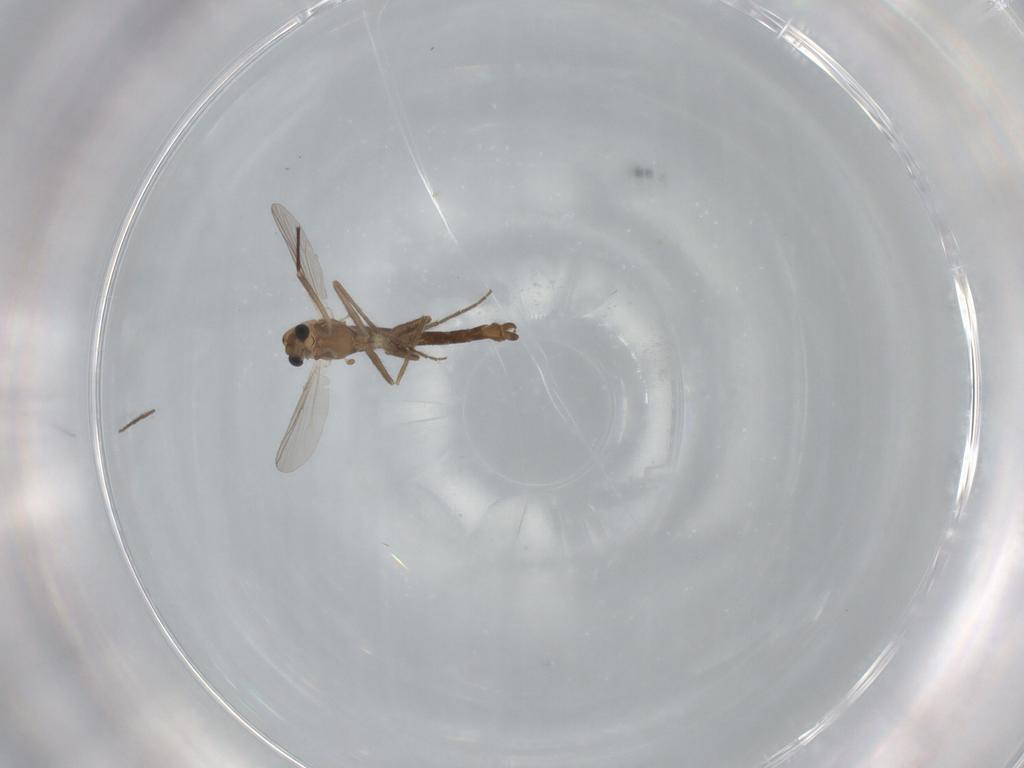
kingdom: Animalia
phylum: Arthropoda
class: Insecta
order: Diptera
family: Chironomidae
